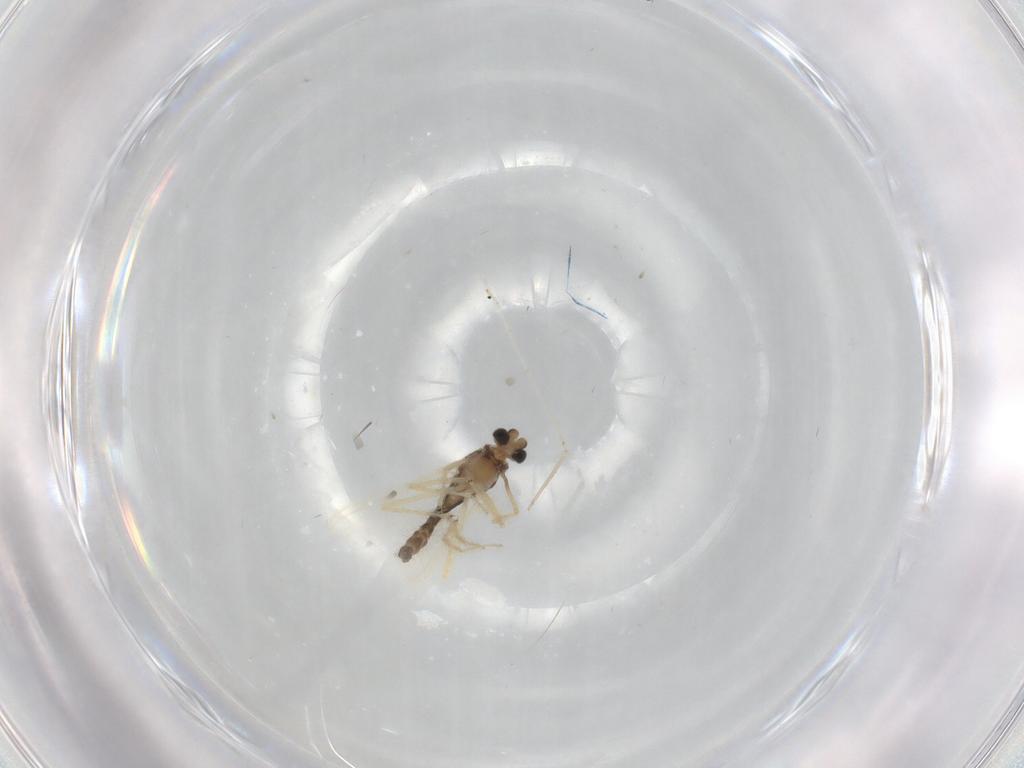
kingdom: Animalia
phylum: Arthropoda
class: Insecta
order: Diptera
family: Chironomidae
